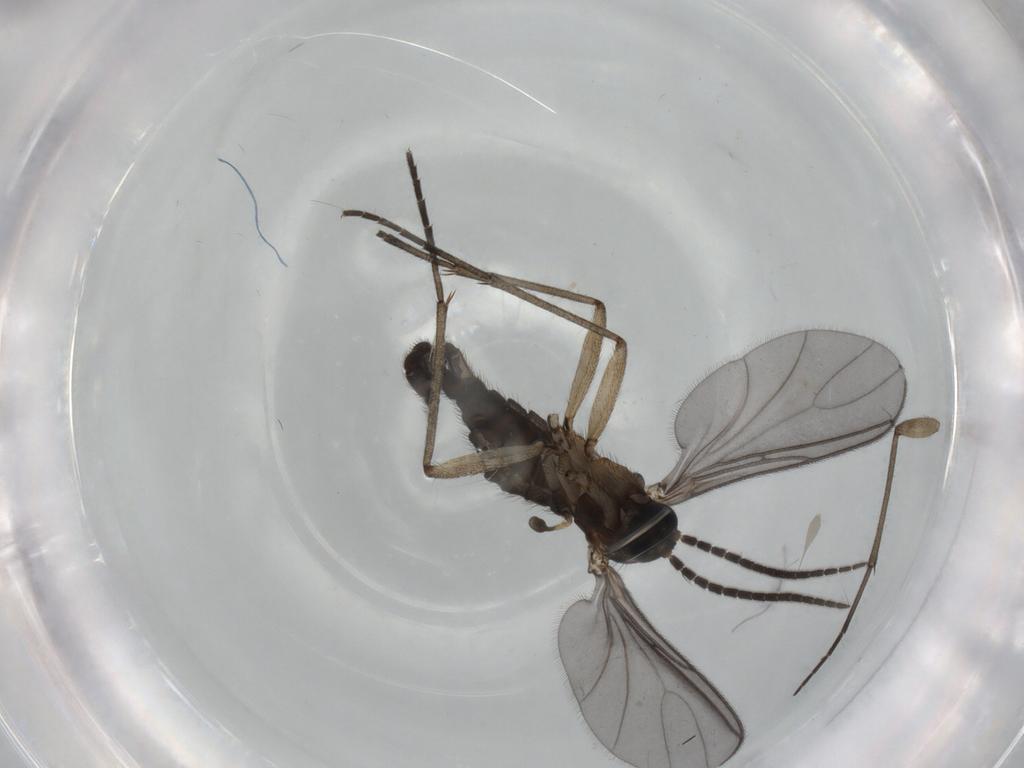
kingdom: Animalia
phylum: Arthropoda
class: Insecta
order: Diptera
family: Sciaridae
